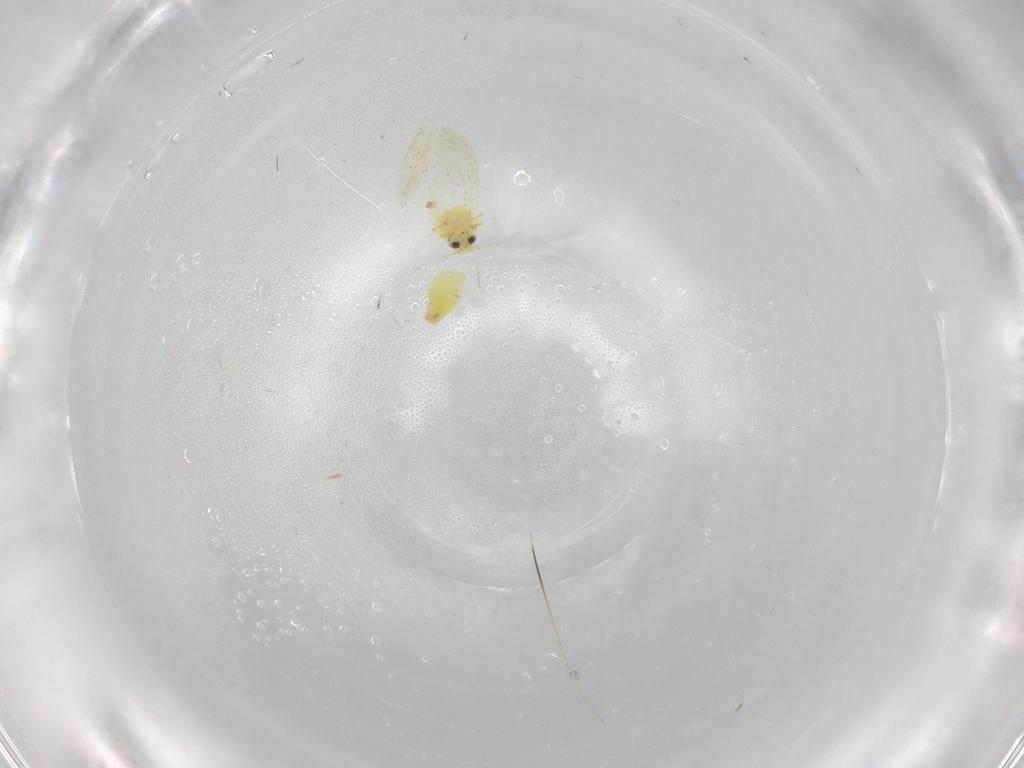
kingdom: Animalia
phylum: Arthropoda
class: Insecta
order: Hemiptera
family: Aleyrodidae
